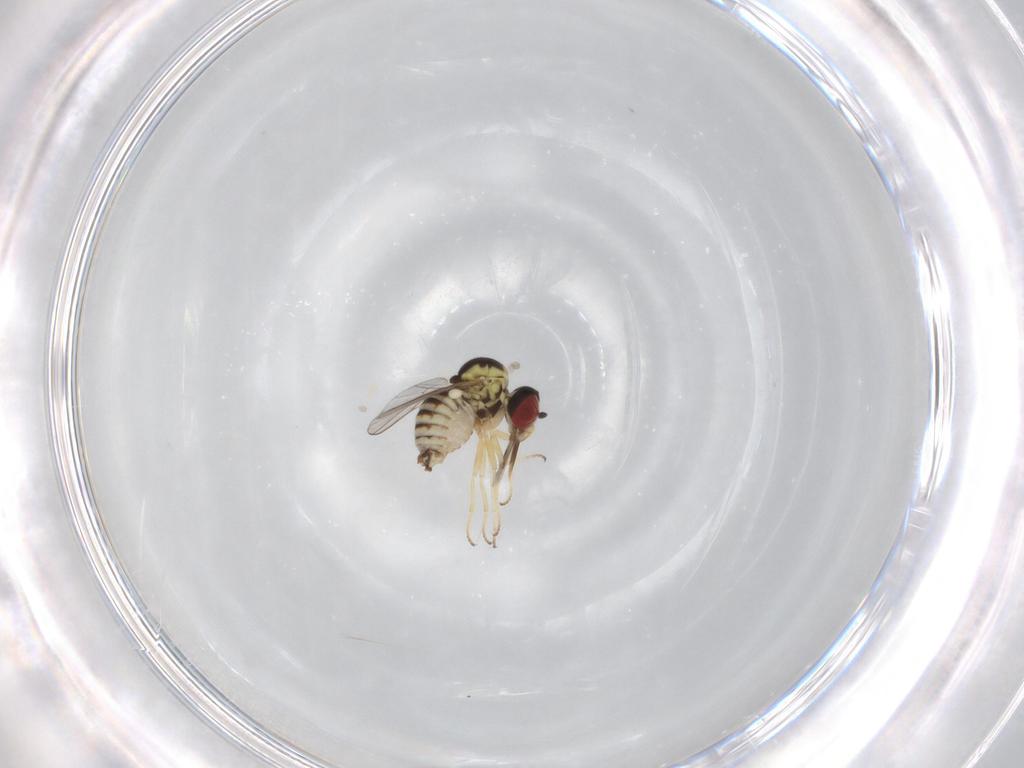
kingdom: Animalia
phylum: Arthropoda
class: Insecta
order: Diptera
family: Bombyliidae
